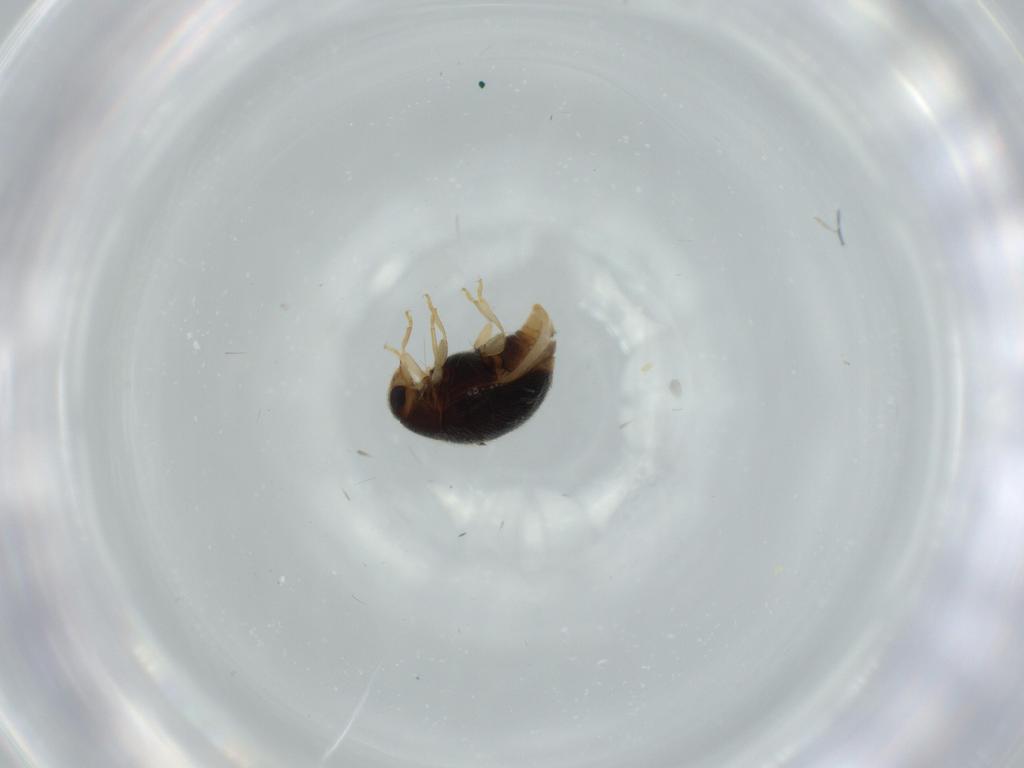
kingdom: Animalia
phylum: Arthropoda
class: Insecta
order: Coleoptera
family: Coccinellidae
